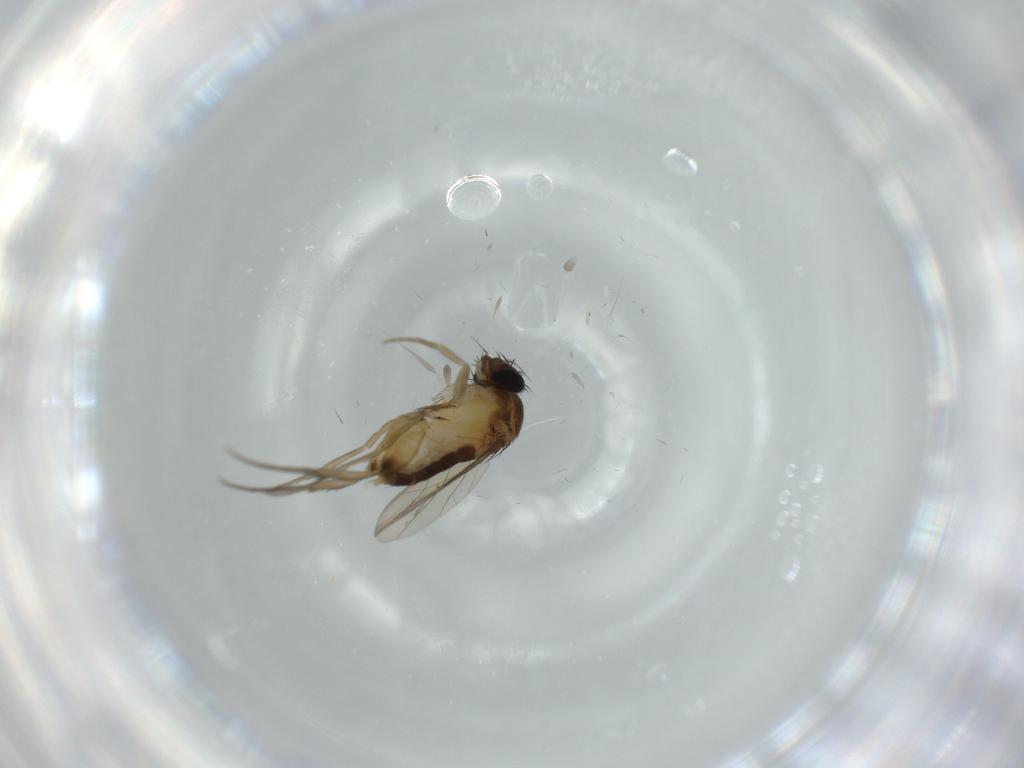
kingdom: Animalia
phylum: Arthropoda
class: Insecta
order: Diptera
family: Phoridae
